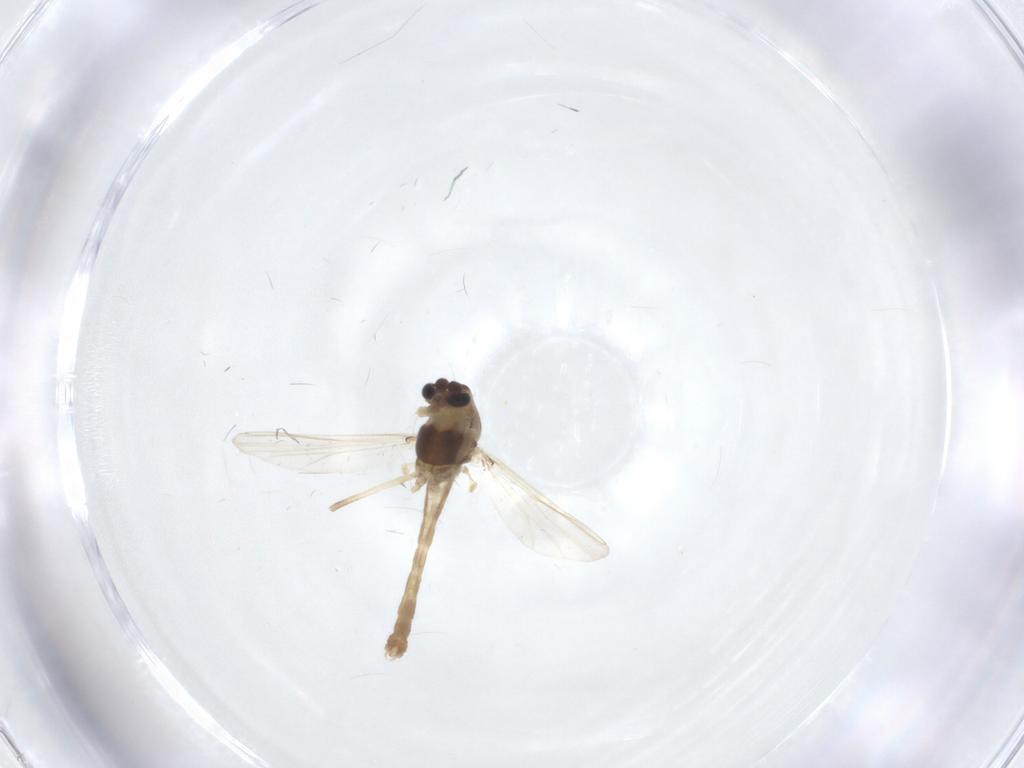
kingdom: Animalia
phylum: Arthropoda
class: Insecta
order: Diptera
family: Chironomidae
